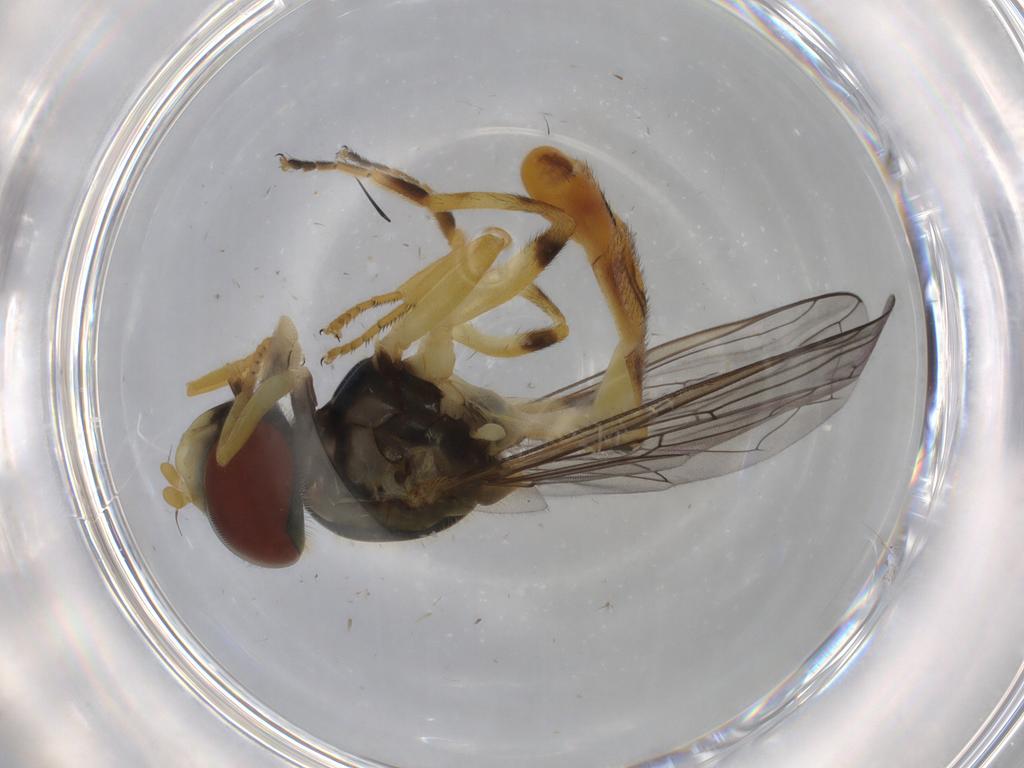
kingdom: Animalia
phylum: Arthropoda
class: Insecta
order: Diptera
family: Syrphidae
